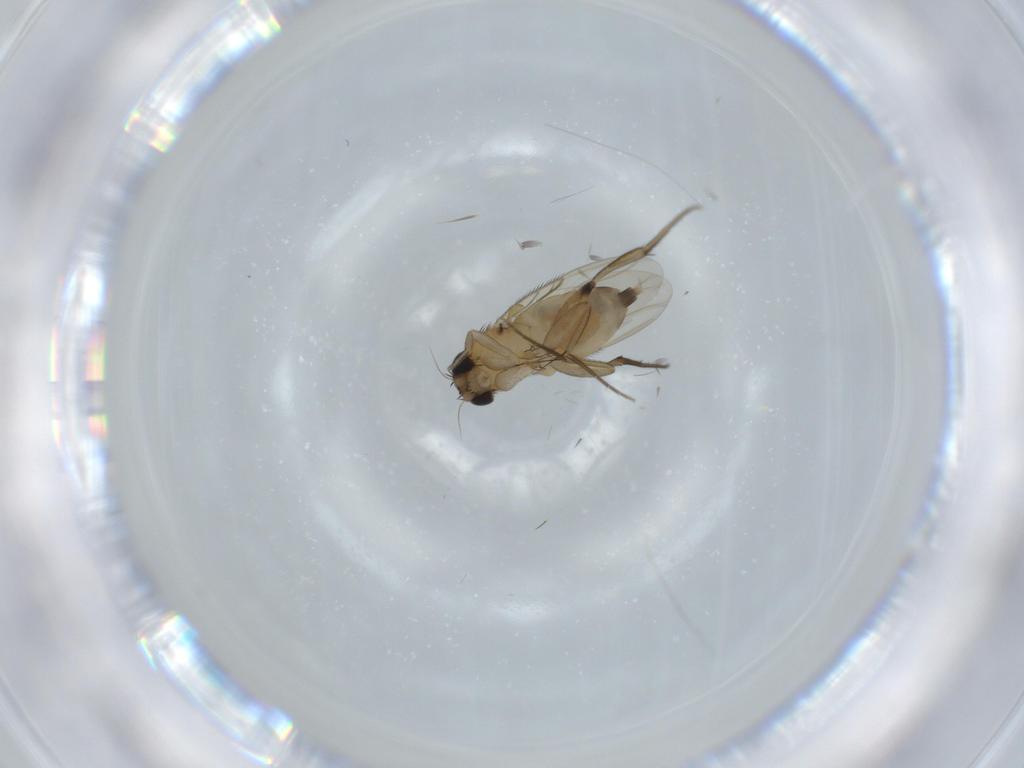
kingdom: Animalia
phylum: Arthropoda
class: Insecta
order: Diptera
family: Phoridae
